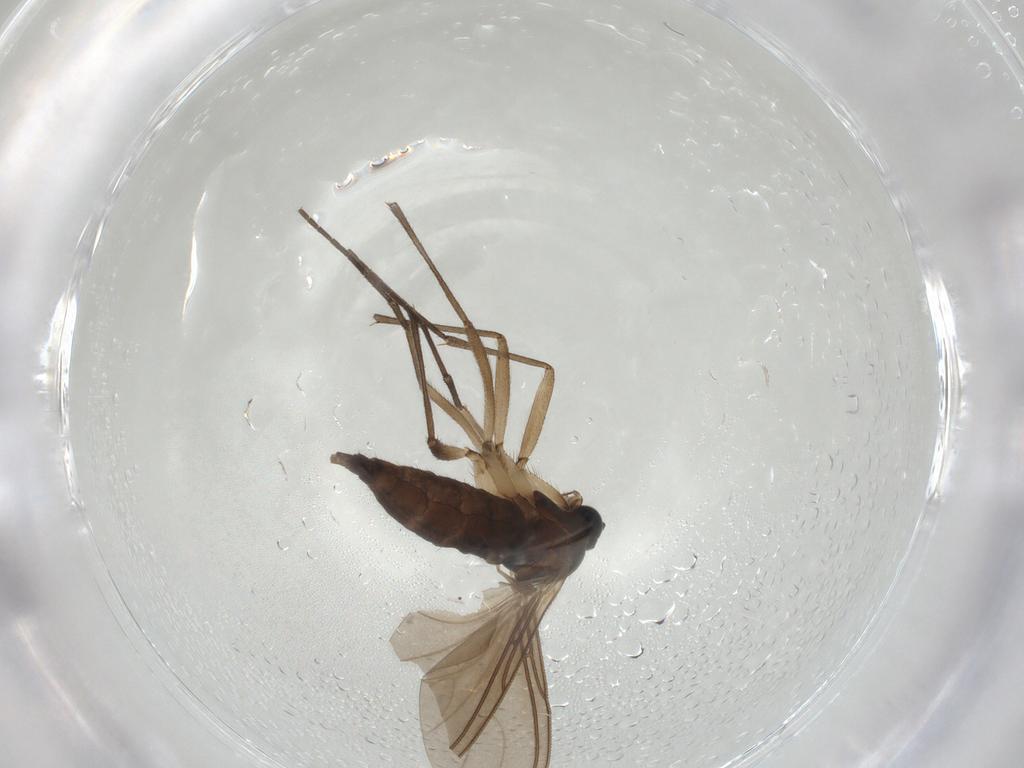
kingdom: Animalia
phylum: Arthropoda
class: Insecta
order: Diptera
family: Sciaridae
